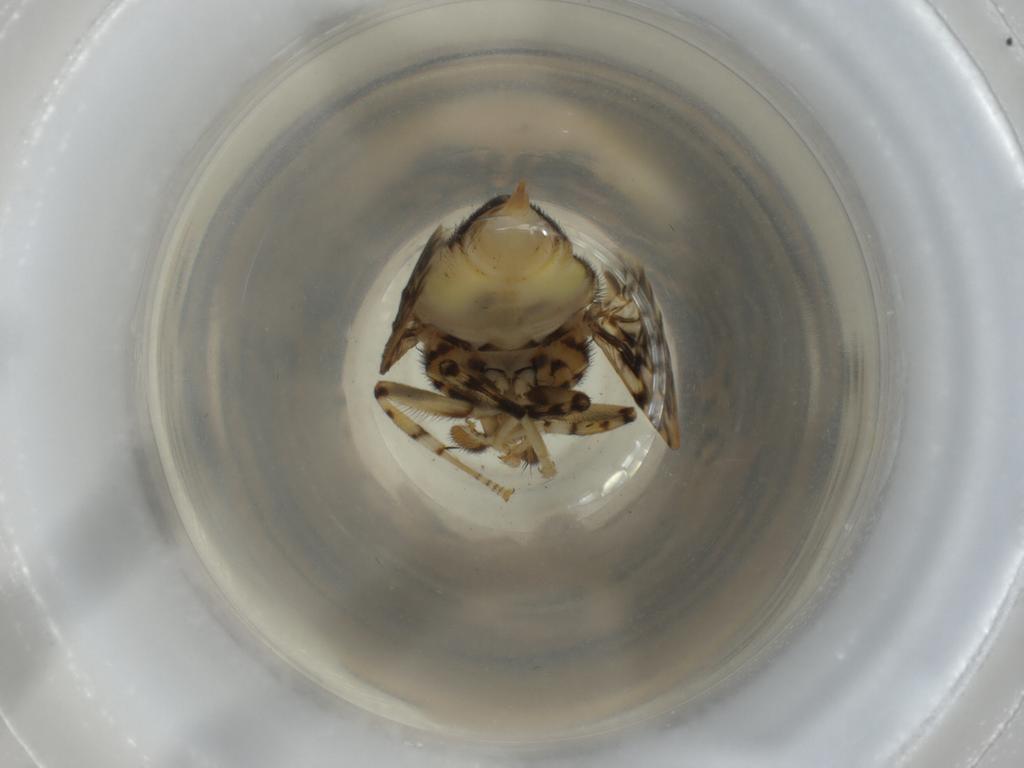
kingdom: Animalia
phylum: Arthropoda
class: Insecta
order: Diptera
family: Platystomatidae
